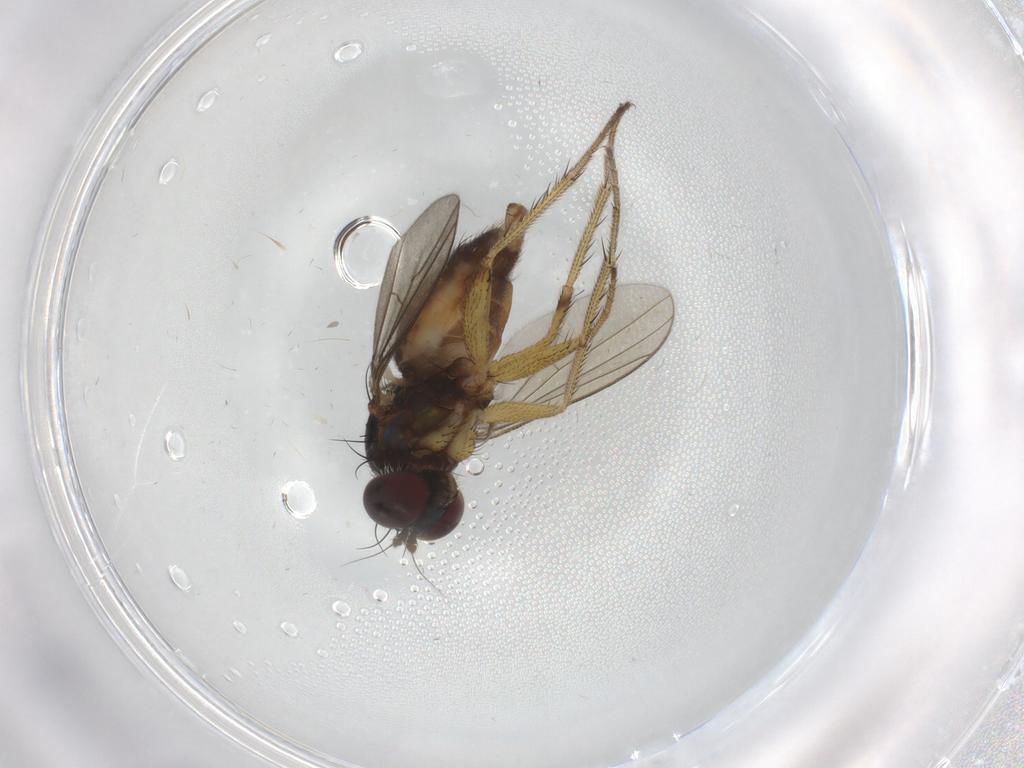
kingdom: Animalia
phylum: Arthropoda
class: Insecta
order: Diptera
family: Dolichopodidae
